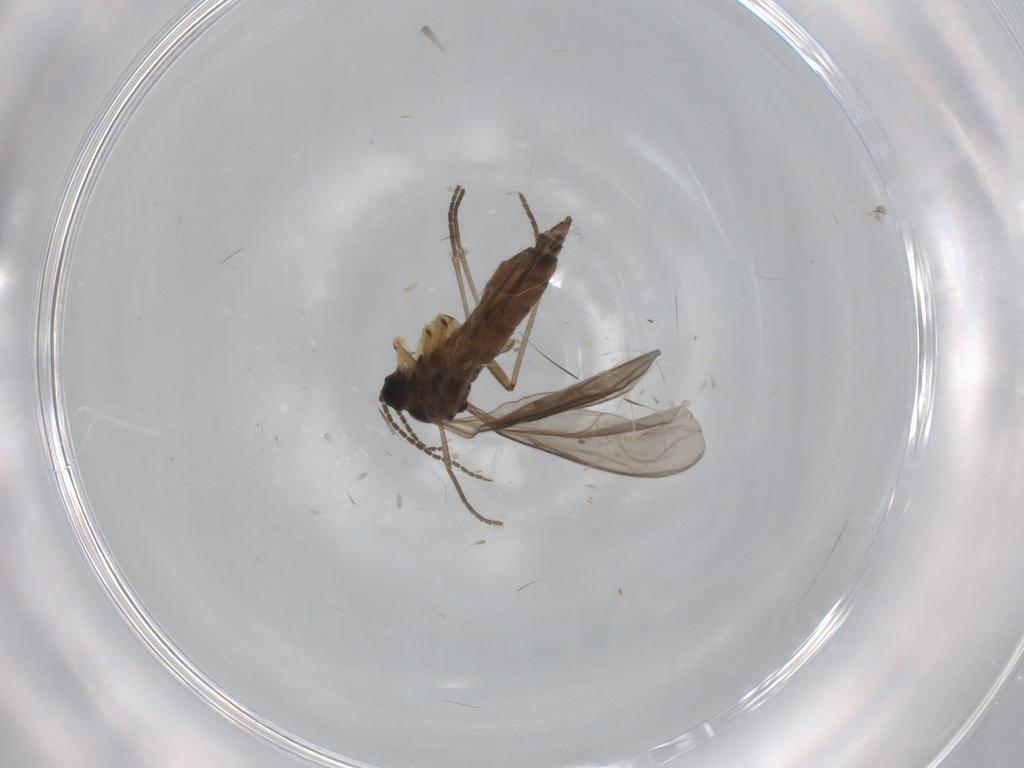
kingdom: Animalia
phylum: Arthropoda
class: Insecta
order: Diptera
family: Sciaridae
